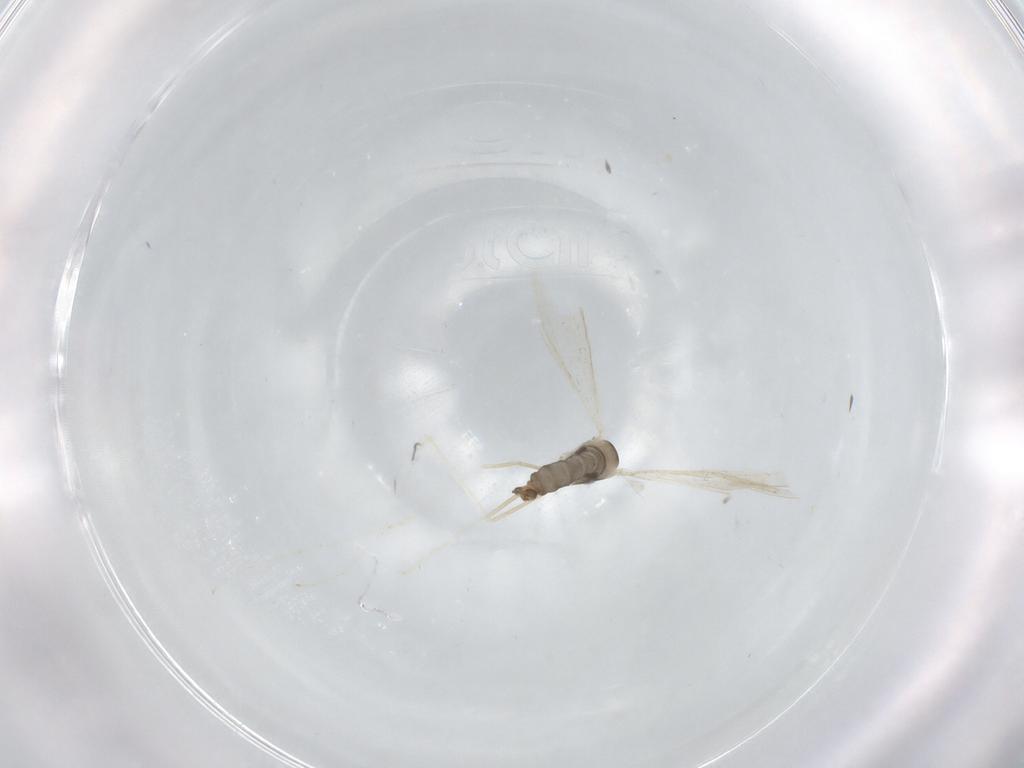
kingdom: Animalia
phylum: Arthropoda
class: Insecta
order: Diptera
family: Cecidomyiidae
